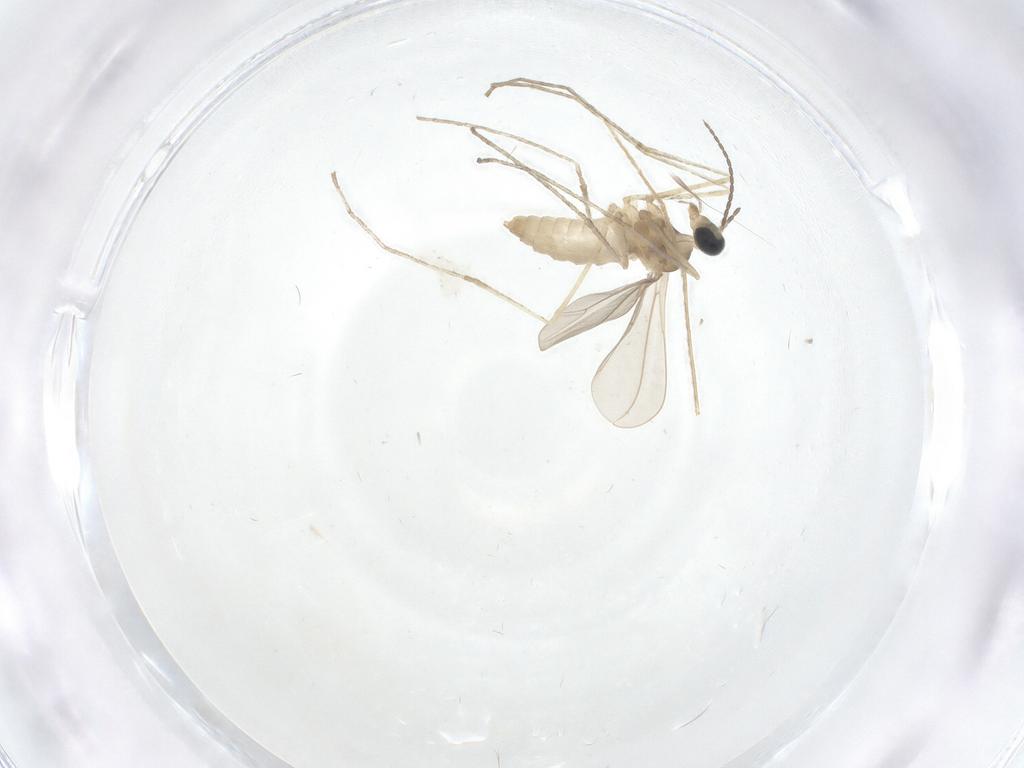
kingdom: Animalia
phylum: Arthropoda
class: Insecta
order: Diptera
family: Cecidomyiidae
